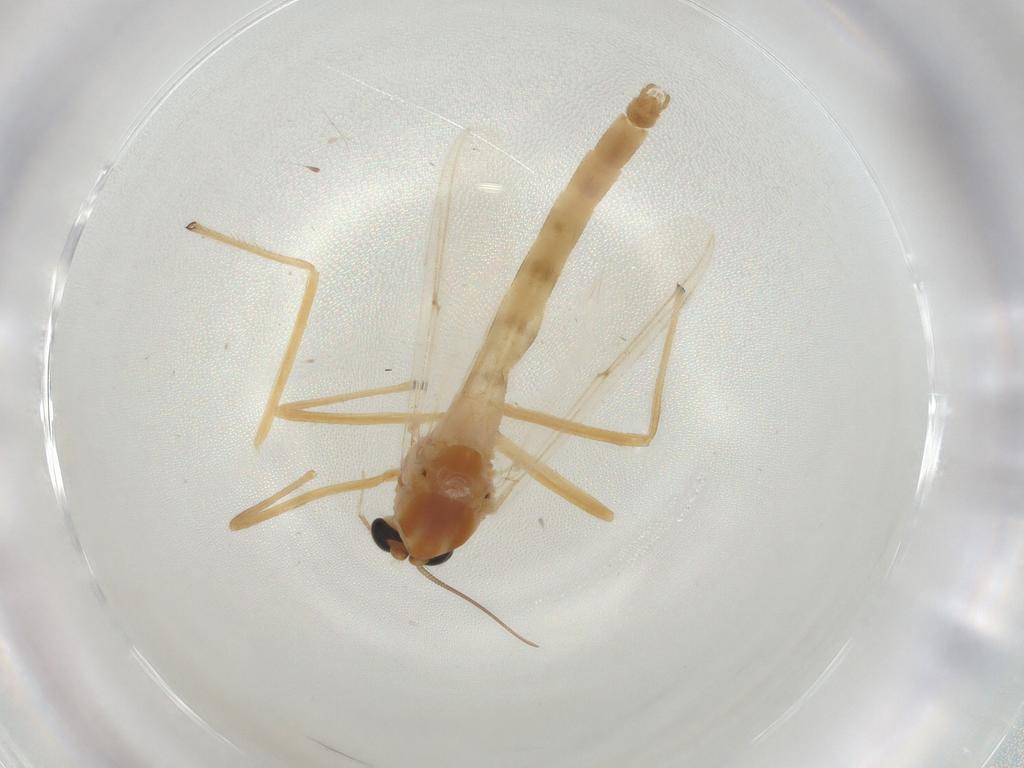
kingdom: Animalia
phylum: Arthropoda
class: Insecta
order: Diptera
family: Chironomidae
